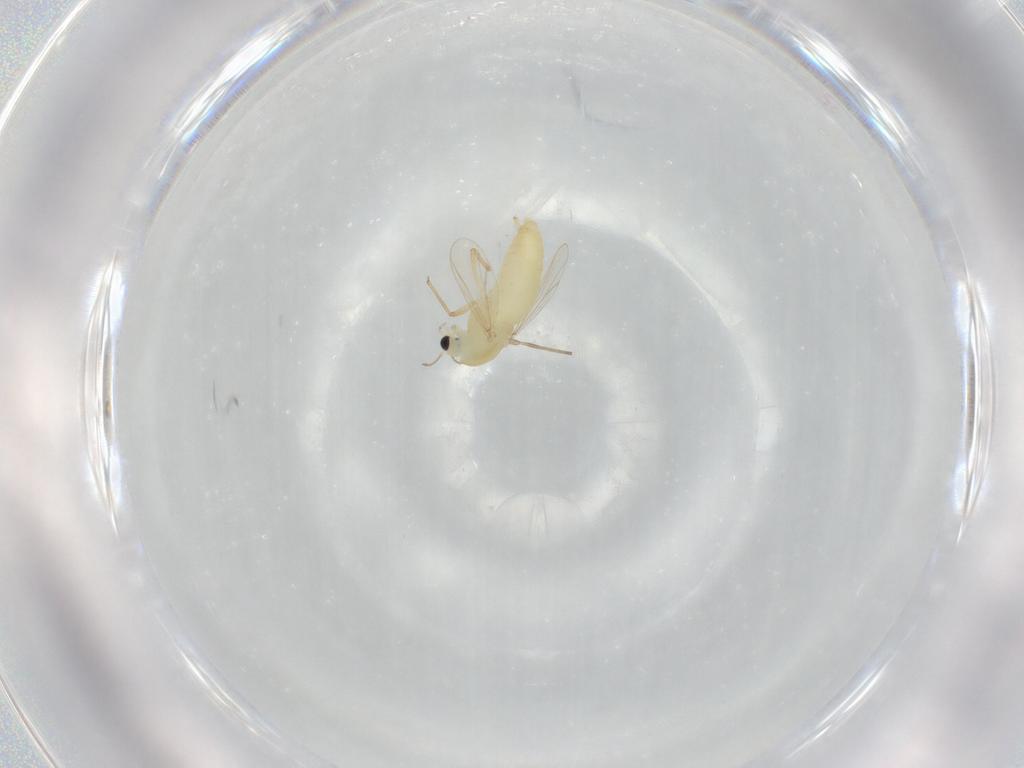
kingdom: Animalia
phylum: Arthropoda
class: Insecta
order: Diptera
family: Chironomidae
